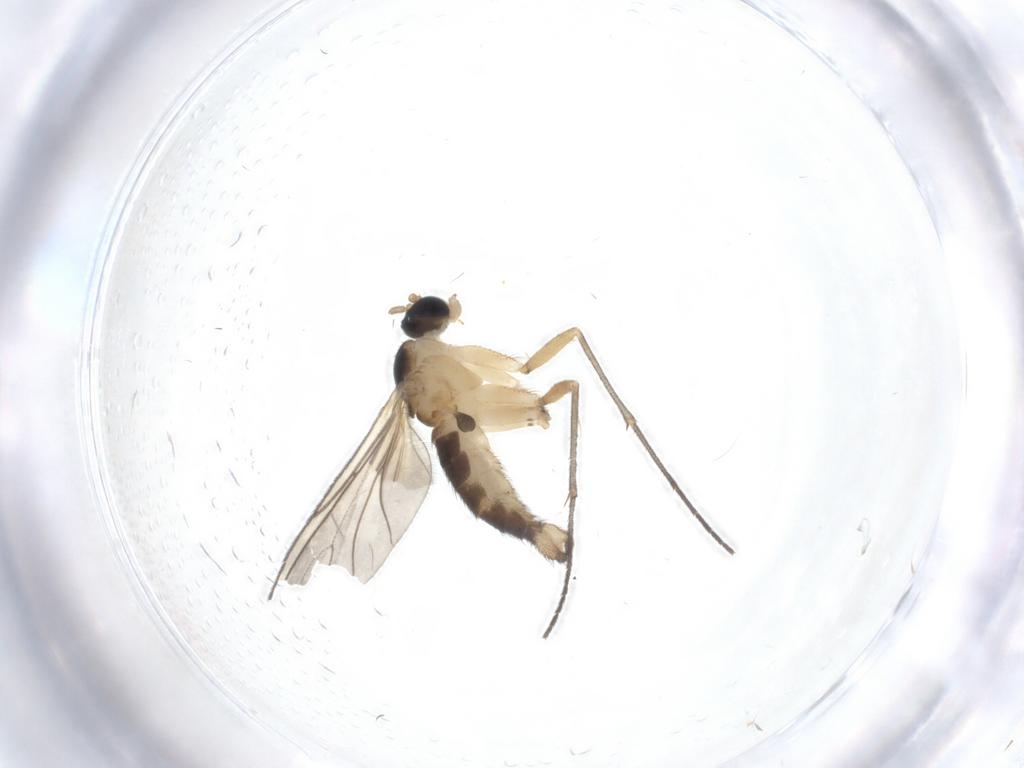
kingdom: Animalia
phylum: Arthropoda
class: Insecta
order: Diptera
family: Sciaridae
